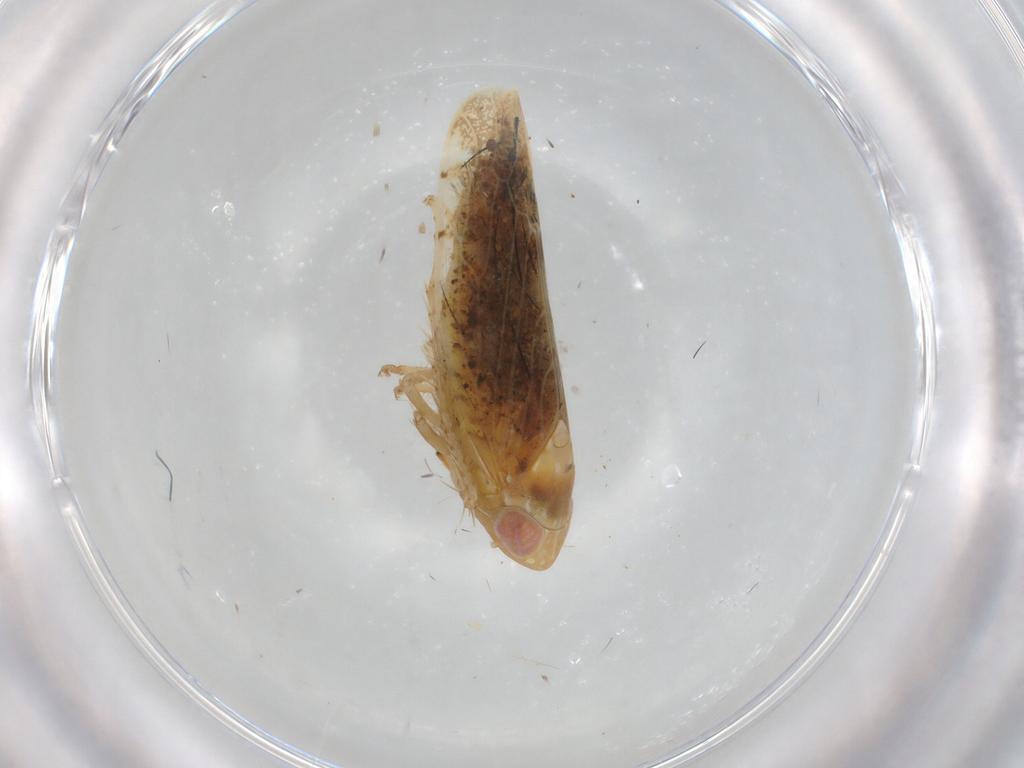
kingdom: Animalia
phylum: Arthropoda
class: Insecta
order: Hemiptera
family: Cicadellidae
